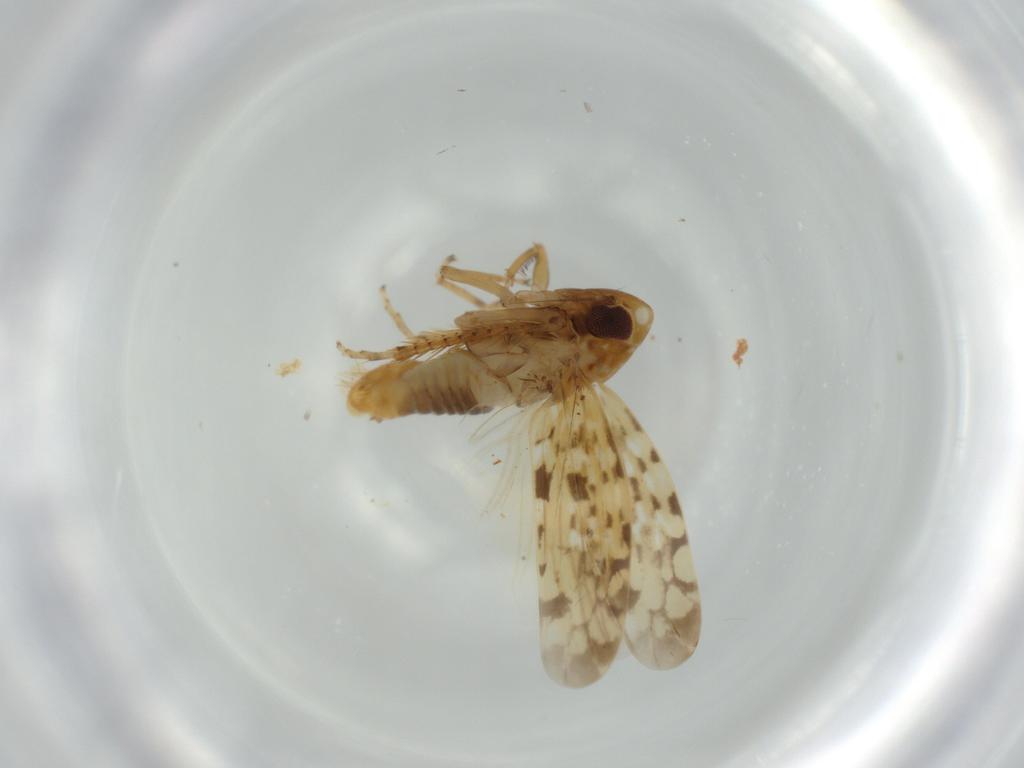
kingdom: Animalia
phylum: Arthropoda
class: Insecta
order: Hemiptera
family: Cicadellidae
